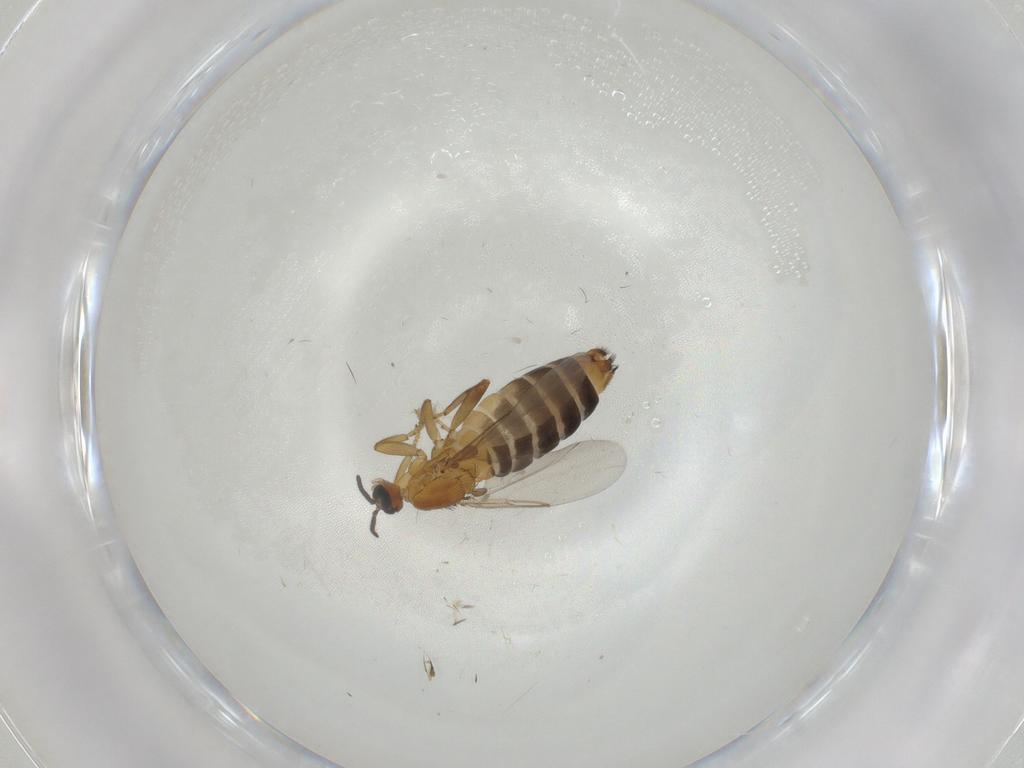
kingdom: Animalia
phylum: Arthropoda
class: Insecta
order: Diptera
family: Scatopsidae
